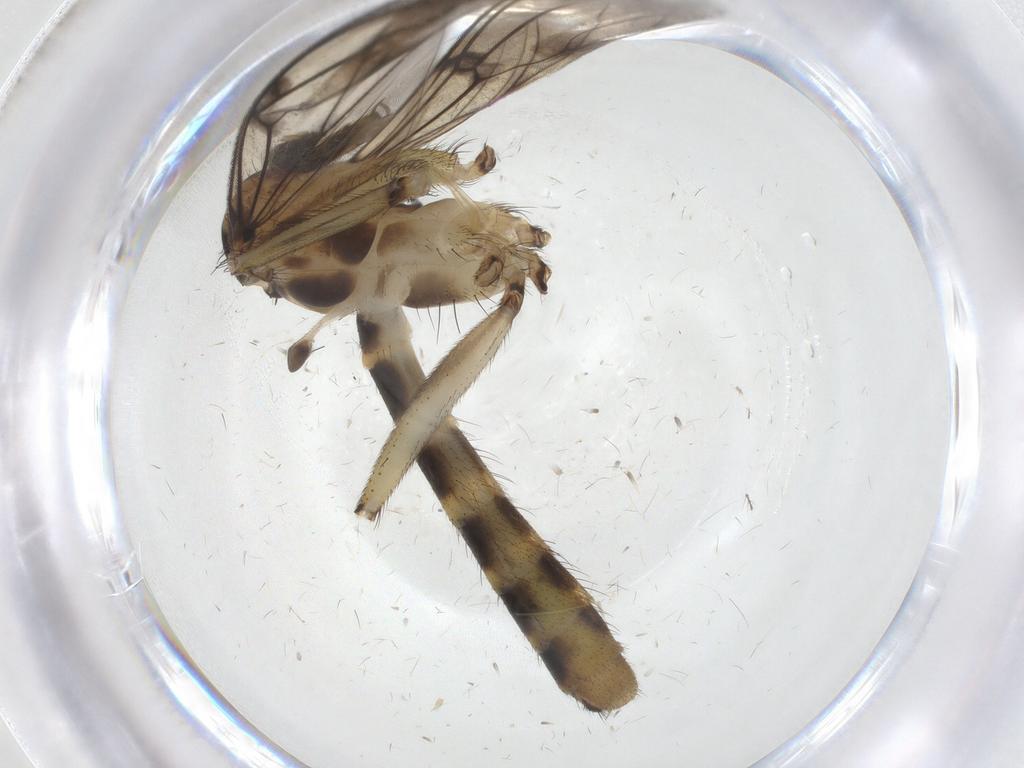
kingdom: Animalia
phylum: Arthropoda
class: Insecta
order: Diptera
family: Mycetophilidae
